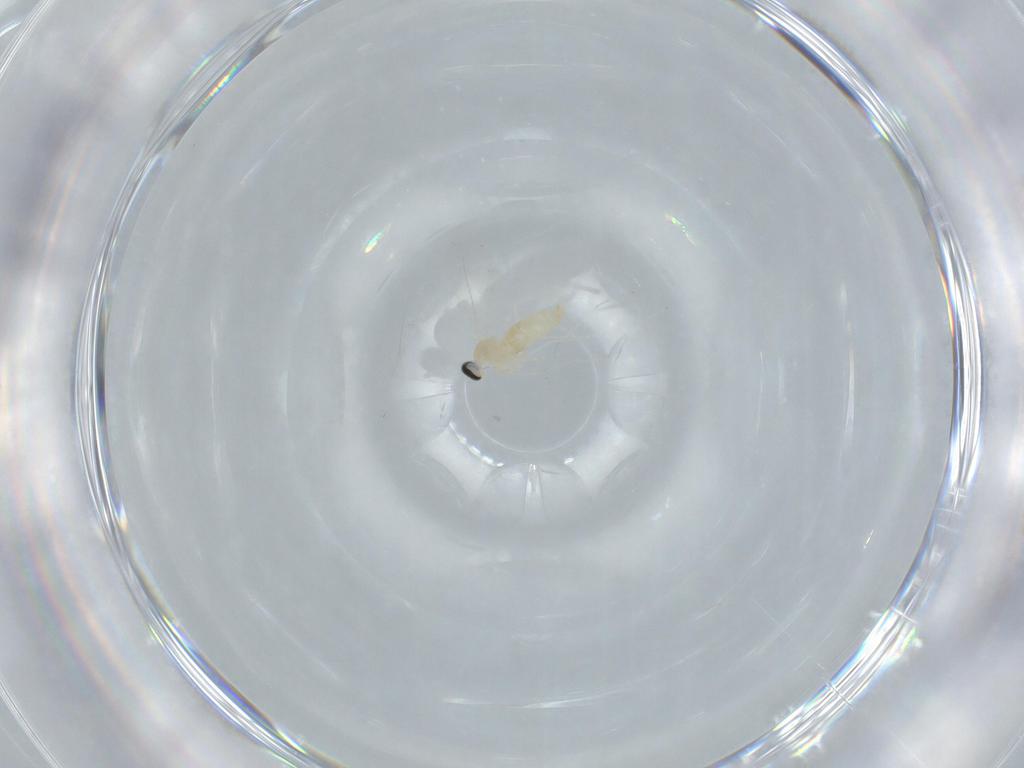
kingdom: Animalia
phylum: Arthropoda
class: Insecta
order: Diptera
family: Cecidomyiidae
